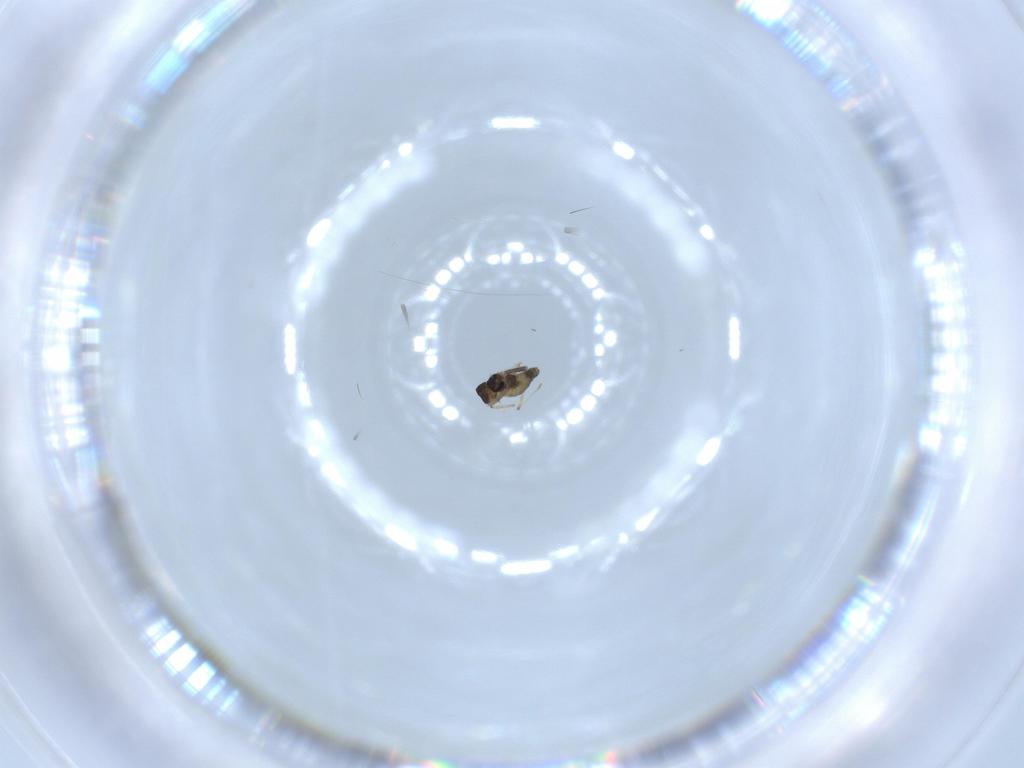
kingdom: Animalia
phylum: Arthropoda
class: Insecta
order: Diptera
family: Chironomidae
